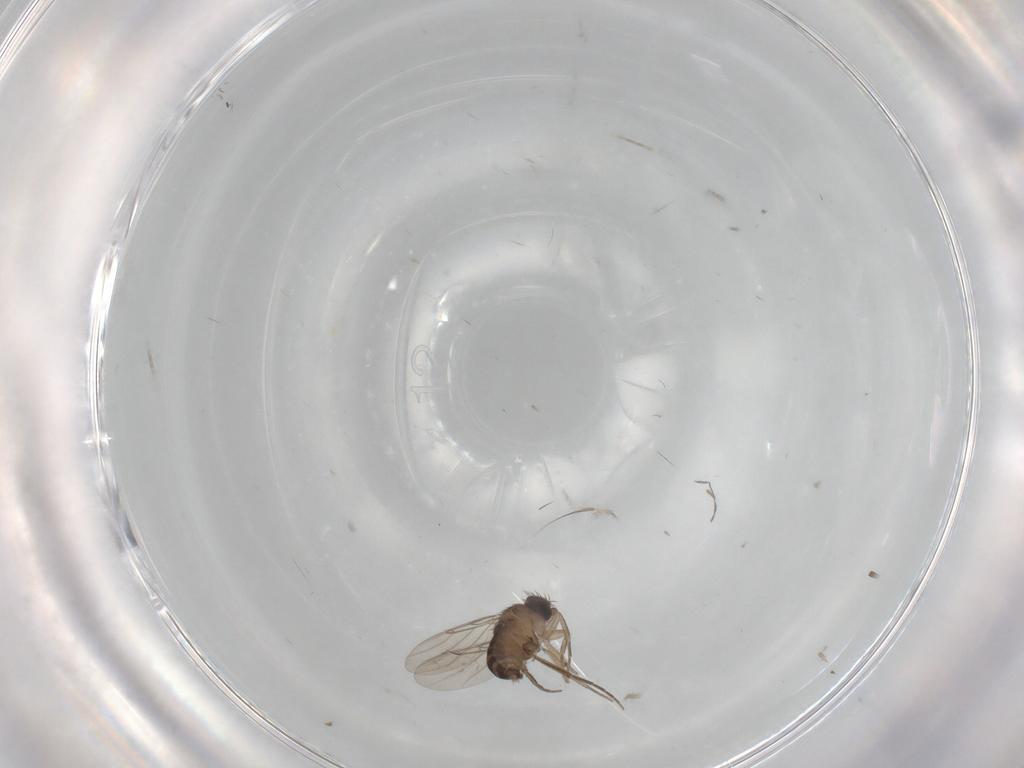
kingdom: Animalia
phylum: Arthropoda
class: Insecta
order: Diptera
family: Phoridae
